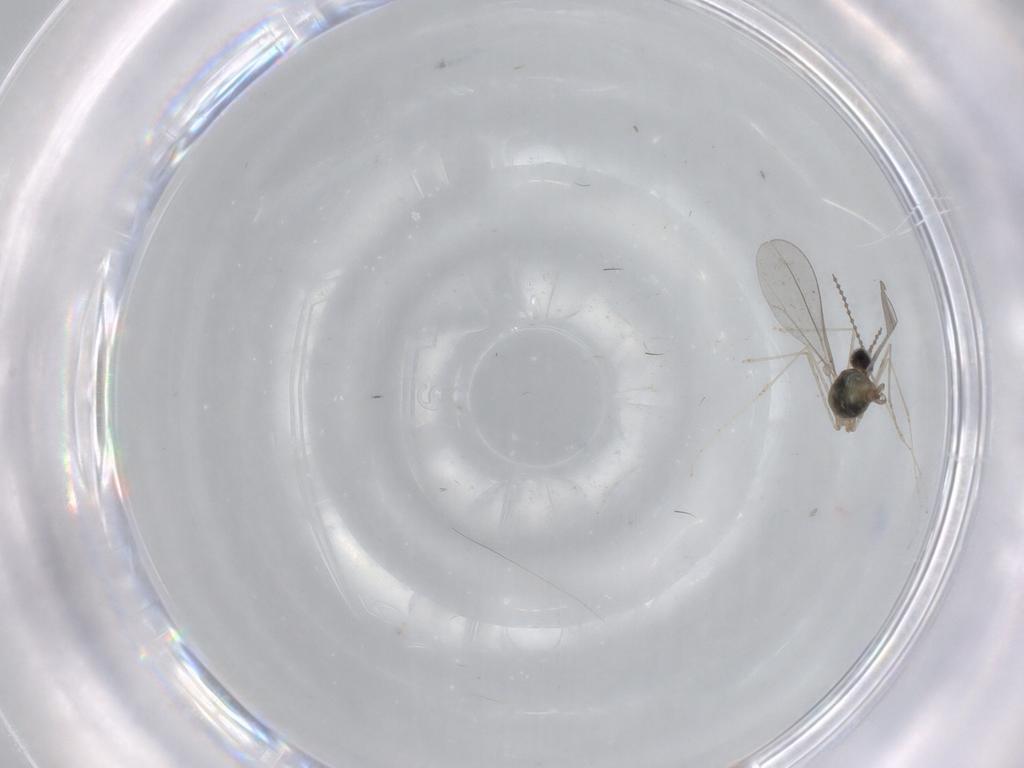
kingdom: Animalia
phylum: Arthropoda
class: Insecta
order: Diptera
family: Cecidomyiidae
